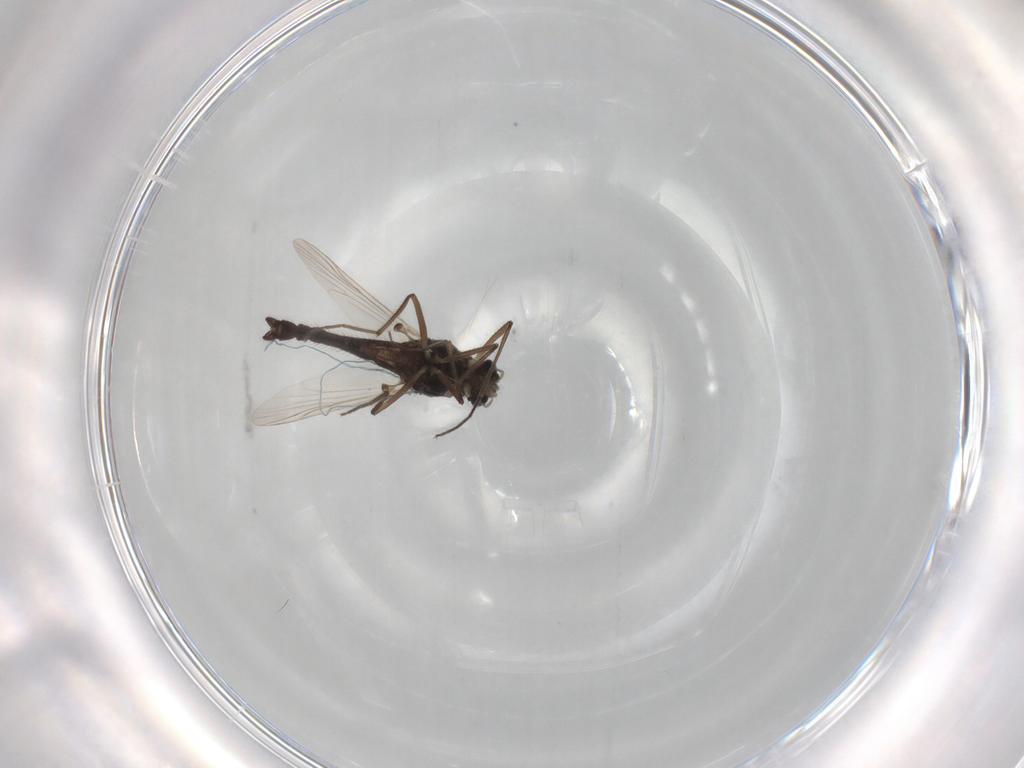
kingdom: Animalia
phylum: Arthropoda
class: Insecta
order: Diptera
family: Chironomidae
